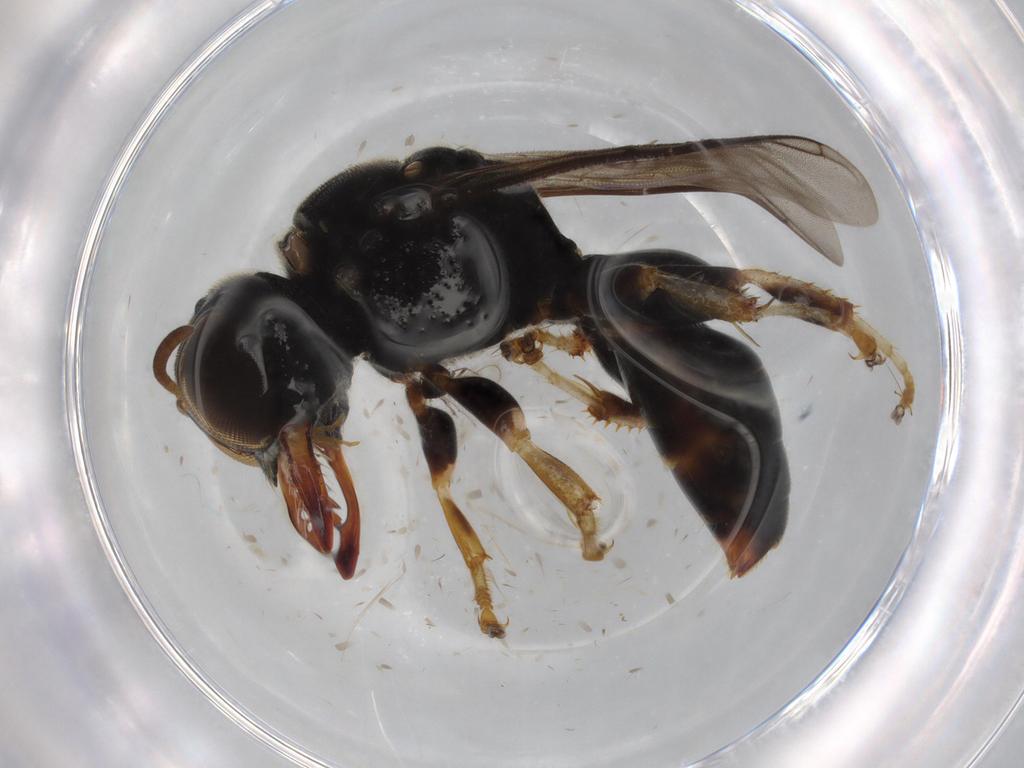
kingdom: Animalia
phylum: Arthropoda
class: Insecta
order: Hymenoptera
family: Crabronidae
